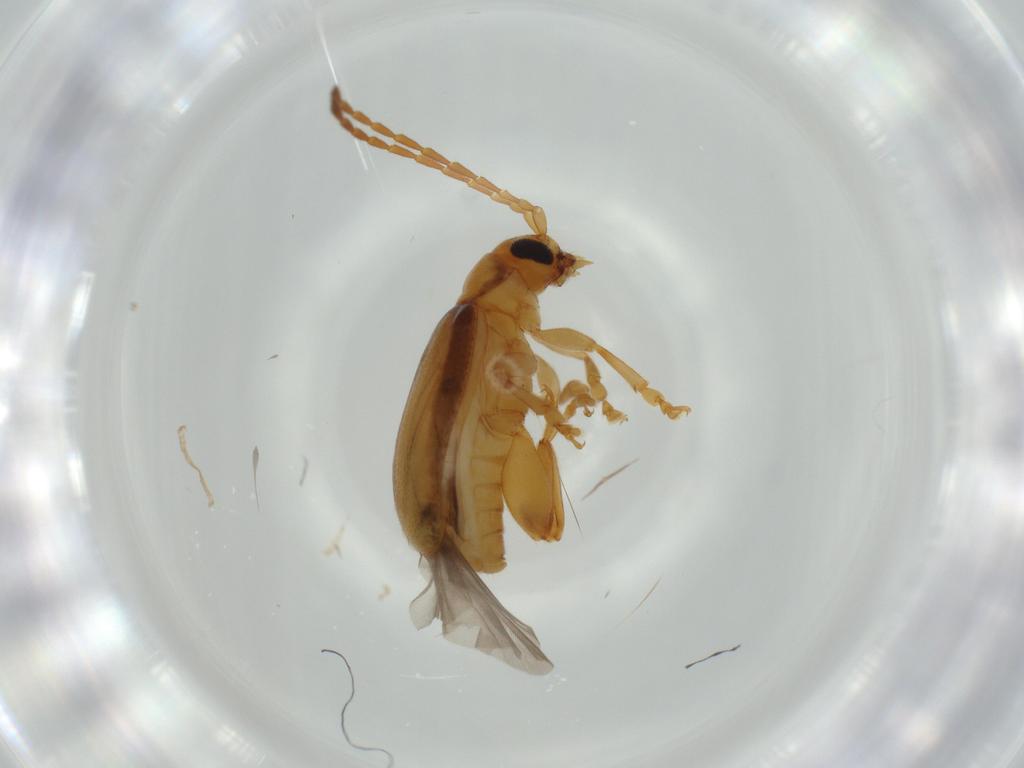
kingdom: Animalia
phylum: Arthropoda
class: Insecta
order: Coleoptera
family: Chrysomelidae
